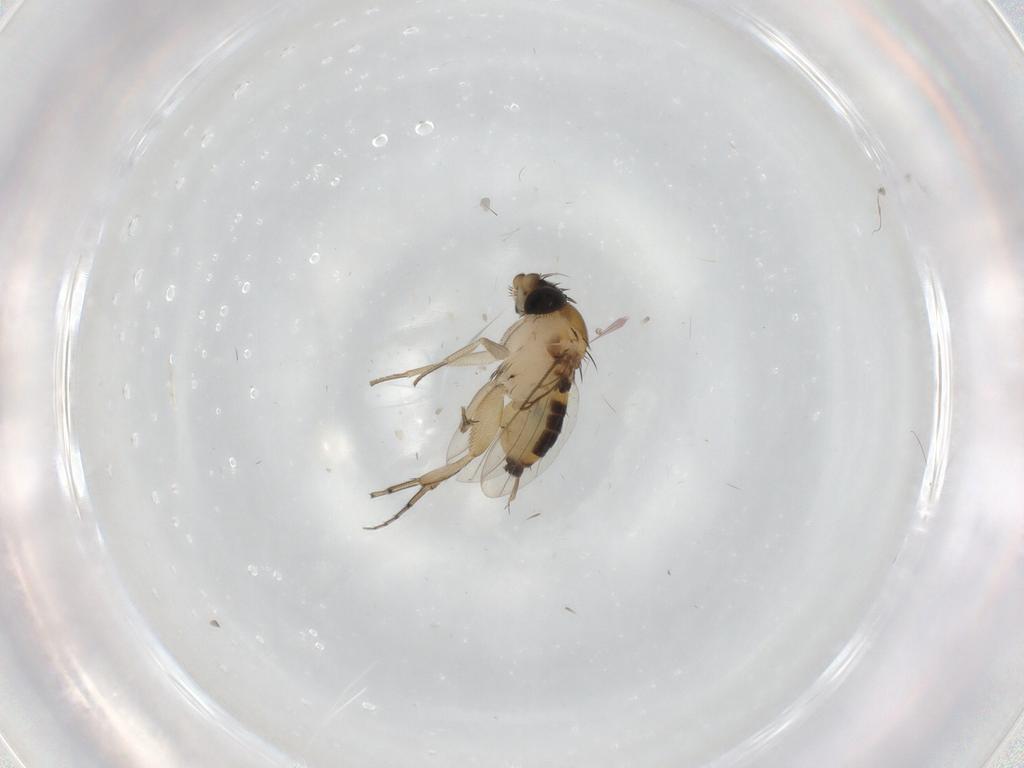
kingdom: Animalia
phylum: Arthropoda
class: Insecta
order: Diptera
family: Phoridae
